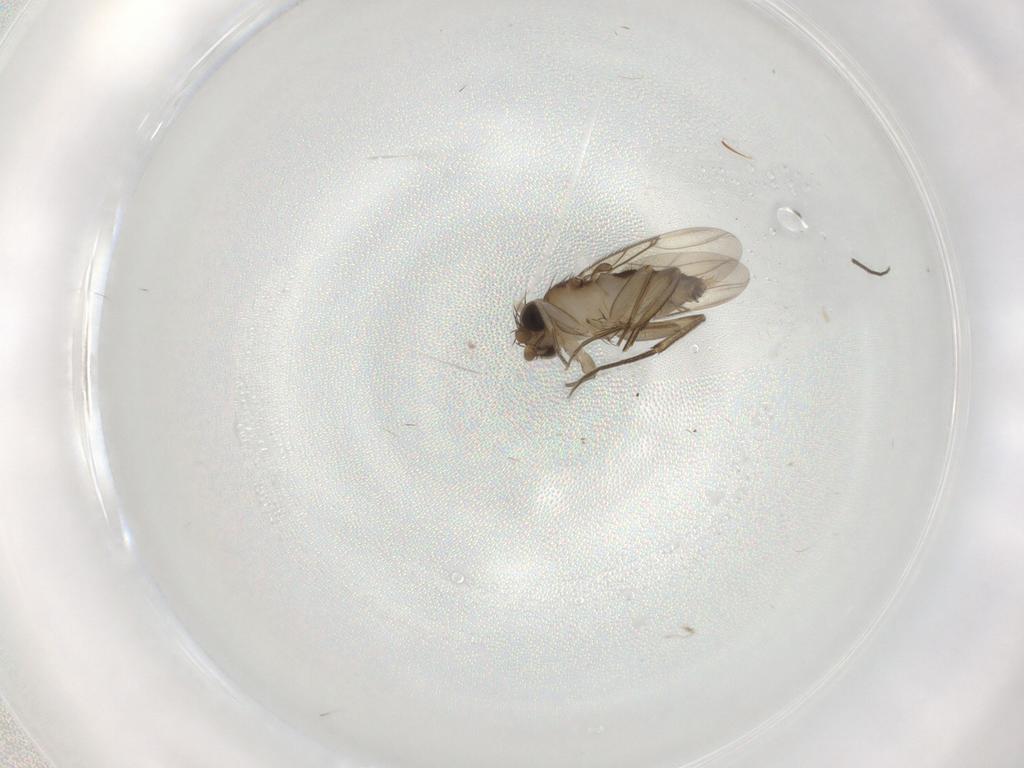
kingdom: Animalia
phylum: Arthropoda
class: Insecta
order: Diptera
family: Phoridae
